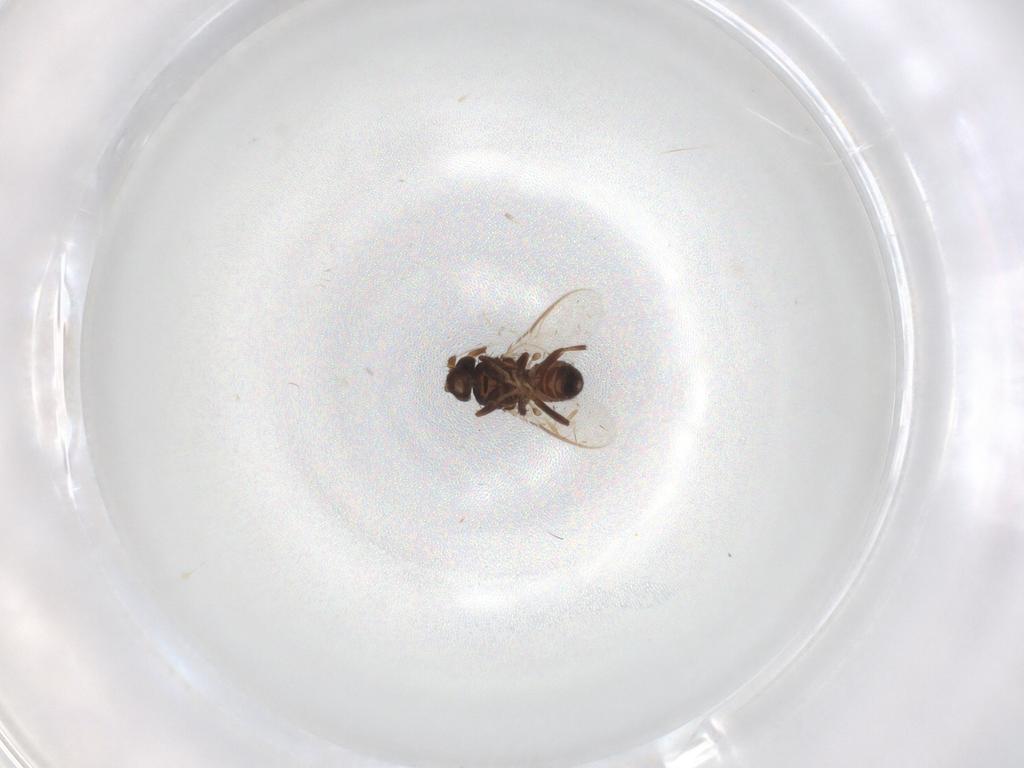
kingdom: Animalia
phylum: Arthropoda
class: Insecta
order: Diptera
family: Sphaeroceridae
